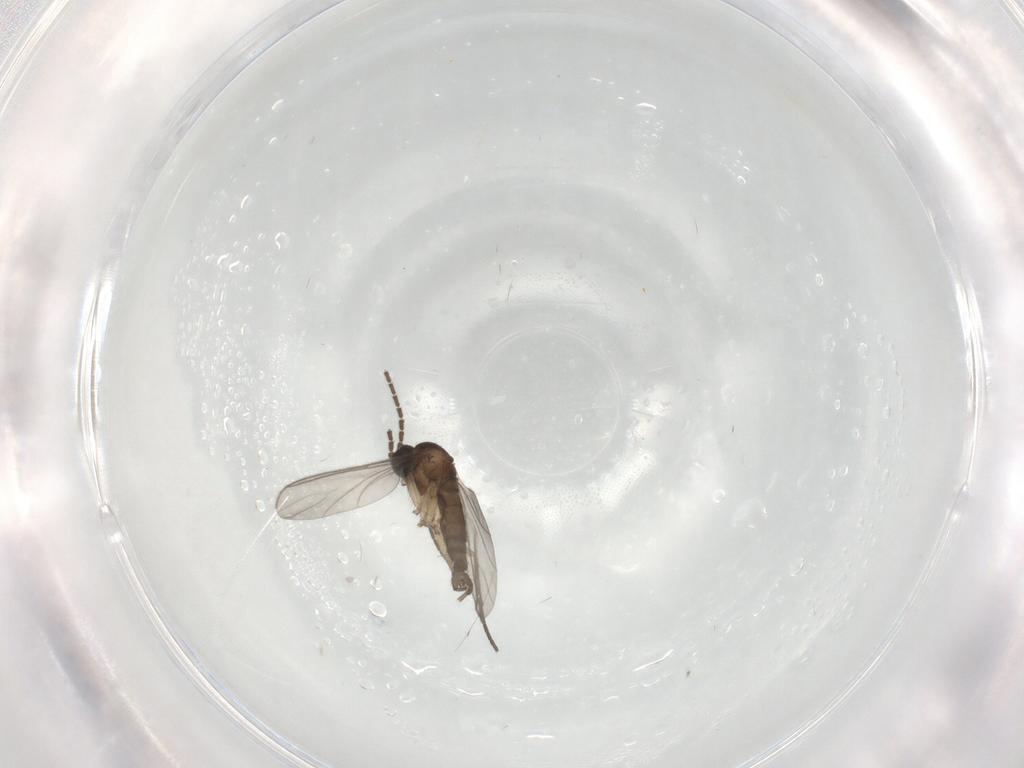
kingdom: Animalia
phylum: Arthropoda
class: Insecta
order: Diptera
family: Sciaridae
